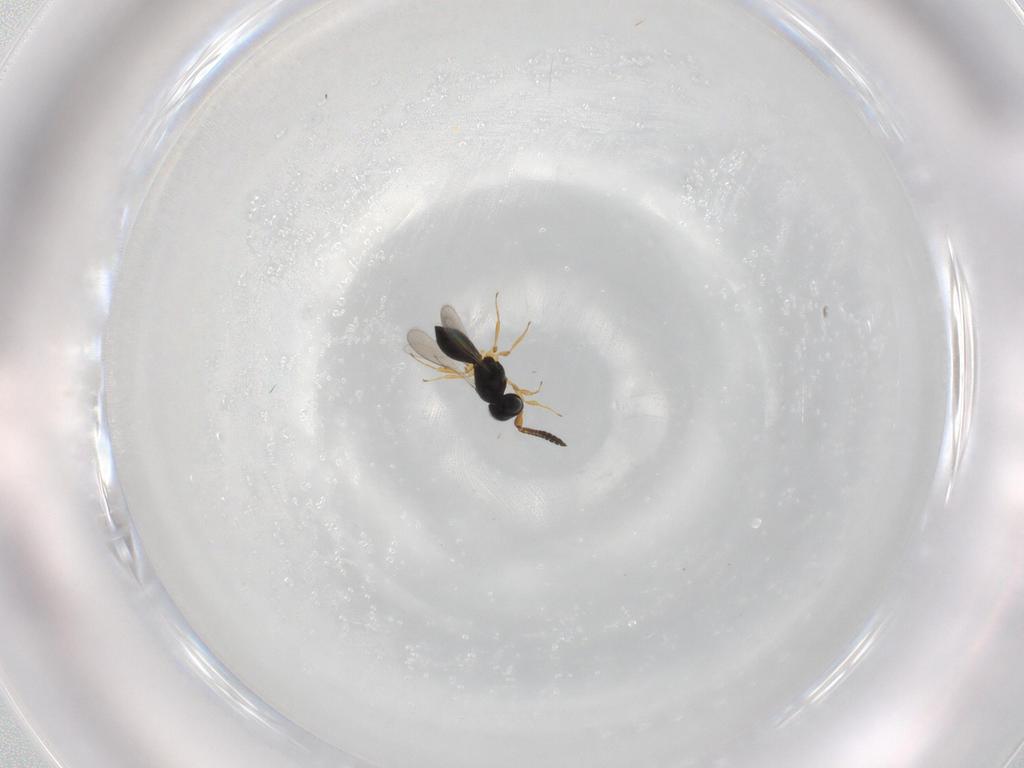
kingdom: Animalia
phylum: Arthropoda
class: Insecta
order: Hymenoptera
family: Scelionidae
